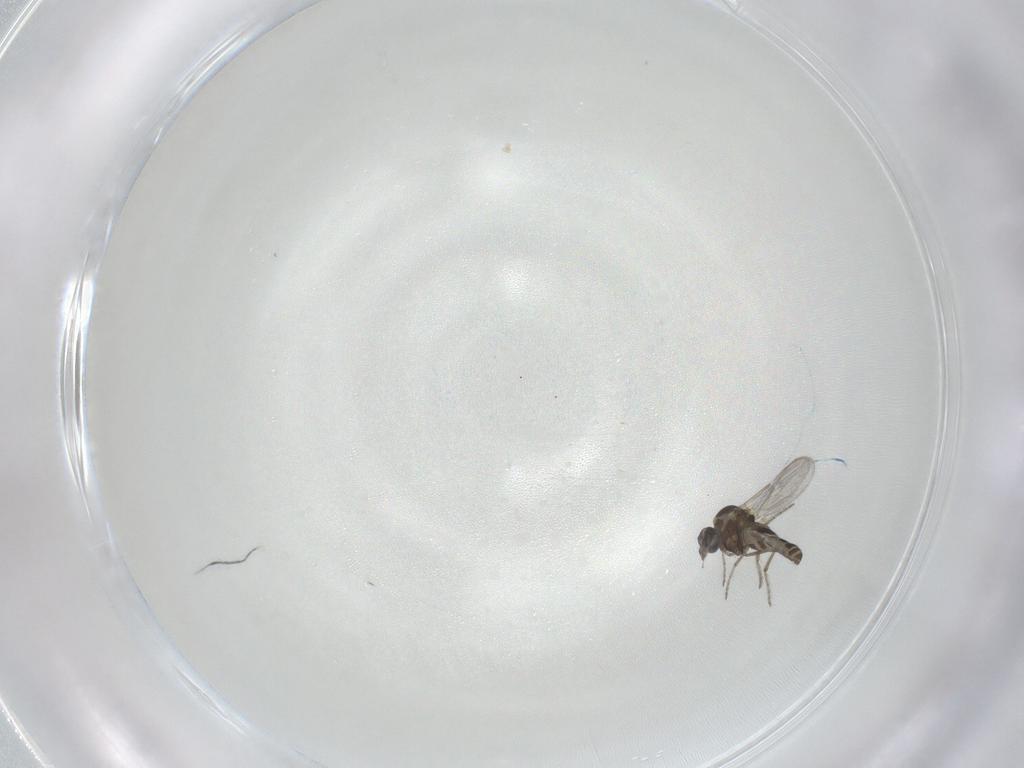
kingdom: Animalia
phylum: Arthropoda
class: Insecta
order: Diptera
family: Ceratopogonidae
